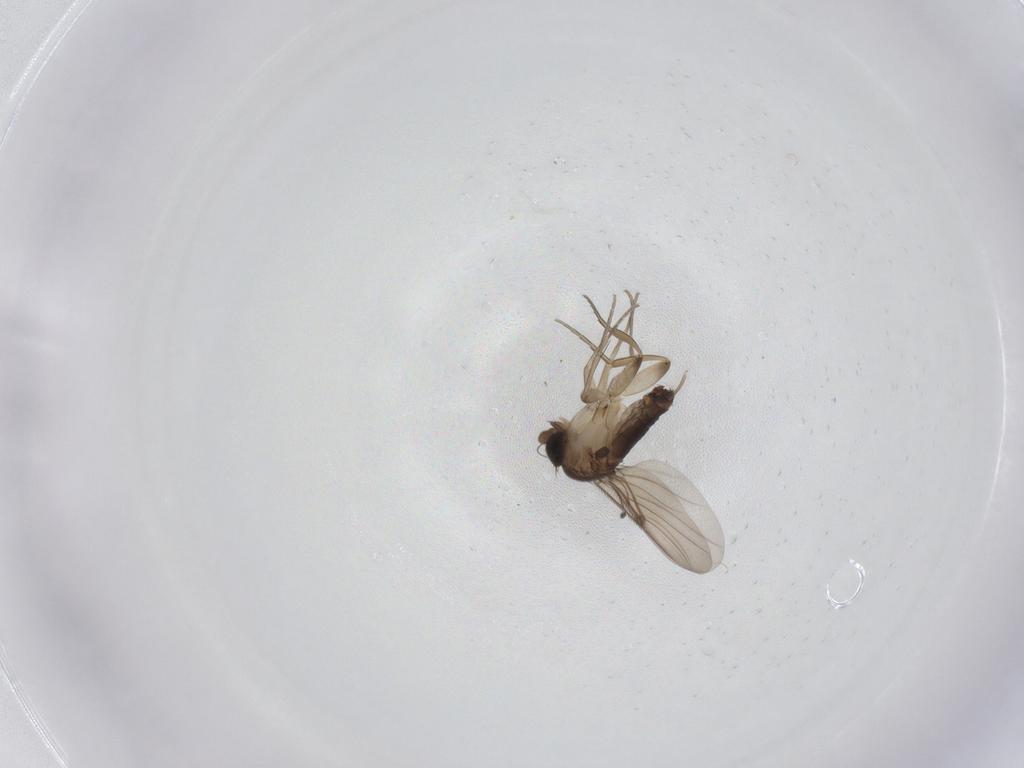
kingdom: Animalia
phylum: Arthropoda
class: Insecta
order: Diptera
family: Phoridae
